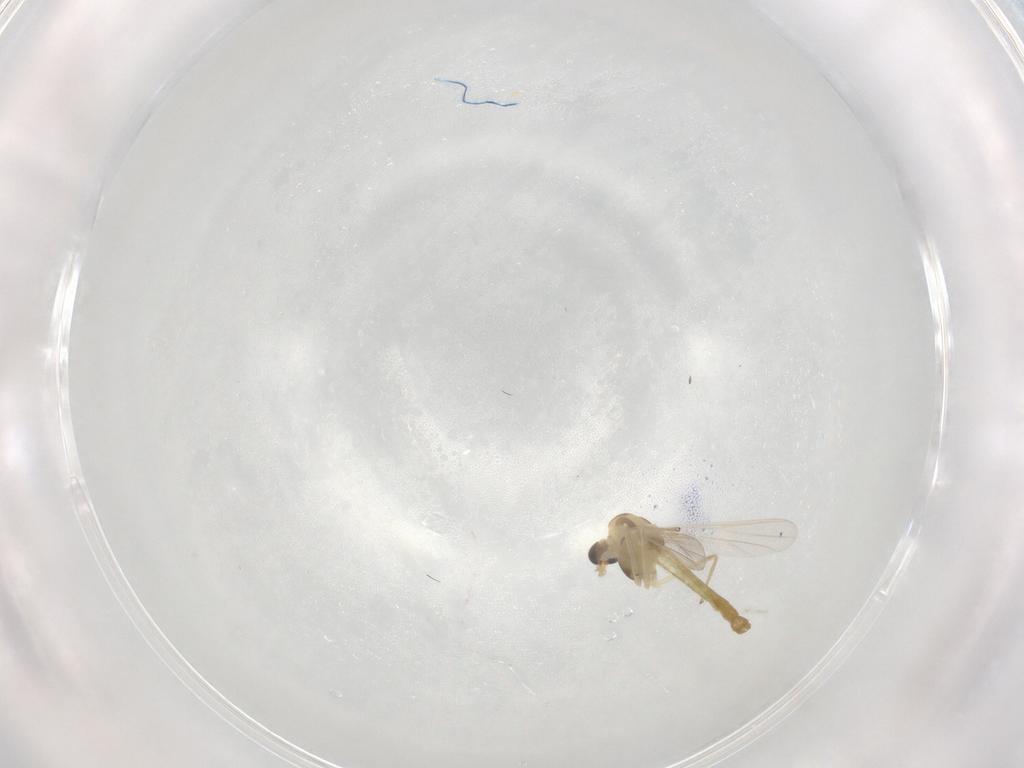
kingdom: Animalia
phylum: Arthropoda
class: Insecta
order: Diptera
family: Chironomidae
